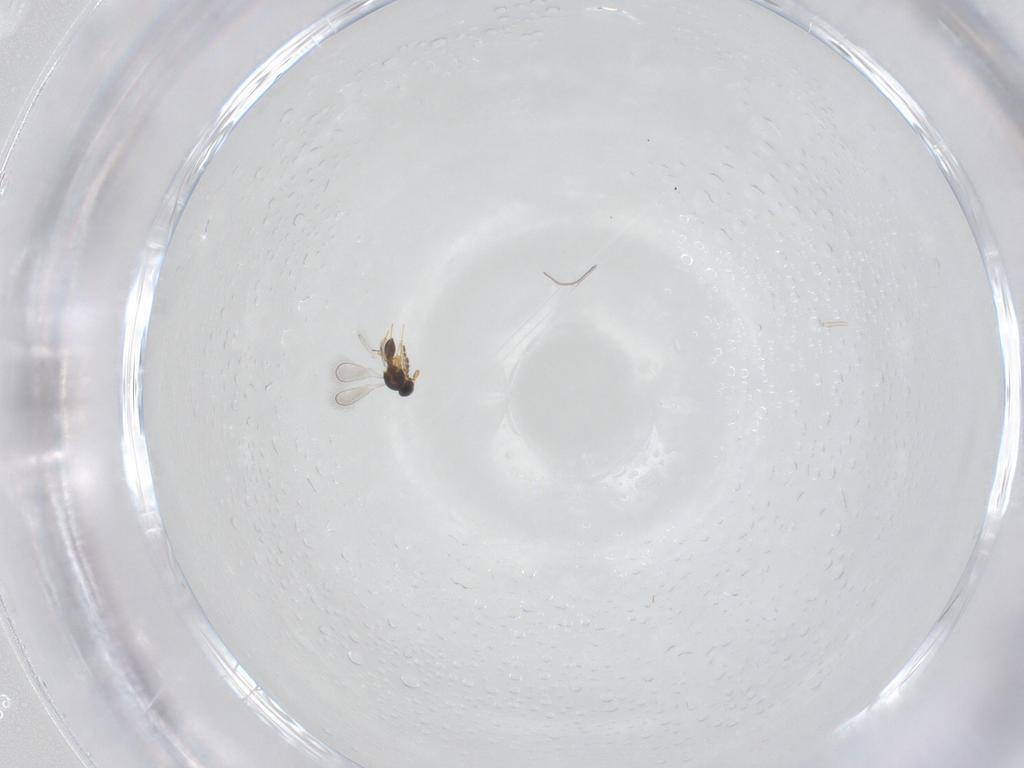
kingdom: Animalia
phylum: Arthropoda
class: Insecta
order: Hymenoptera
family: Platygastridae
